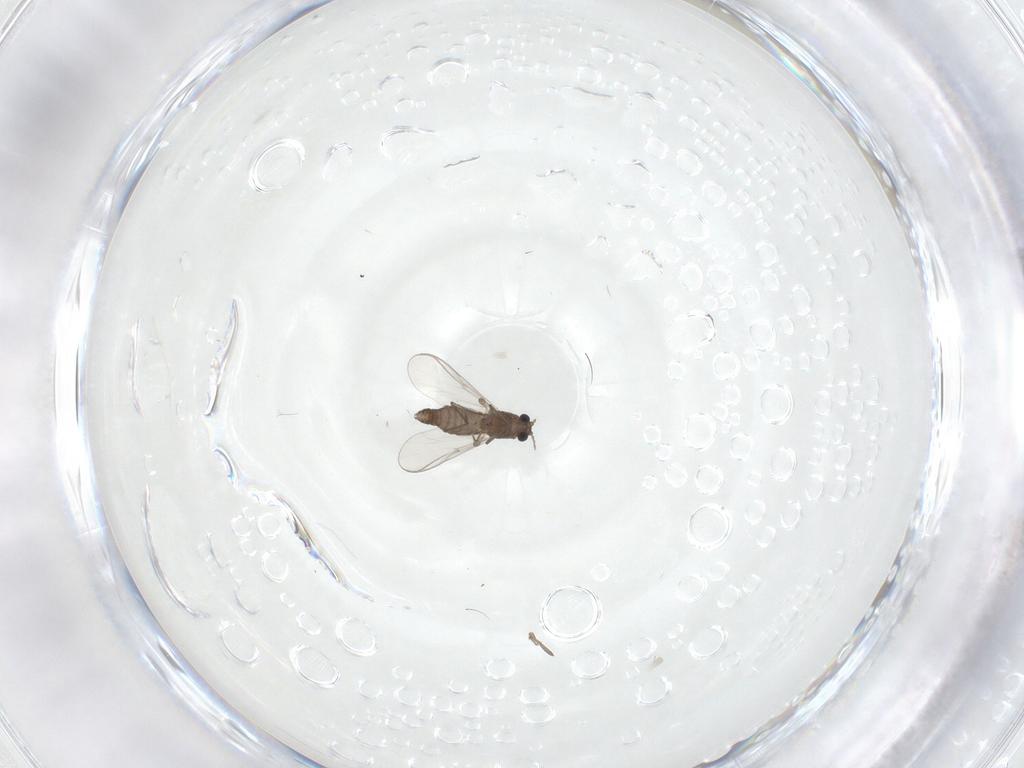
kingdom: Animalia
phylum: Arthropoda
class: Insecta
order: Diptera
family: Chironomidae
